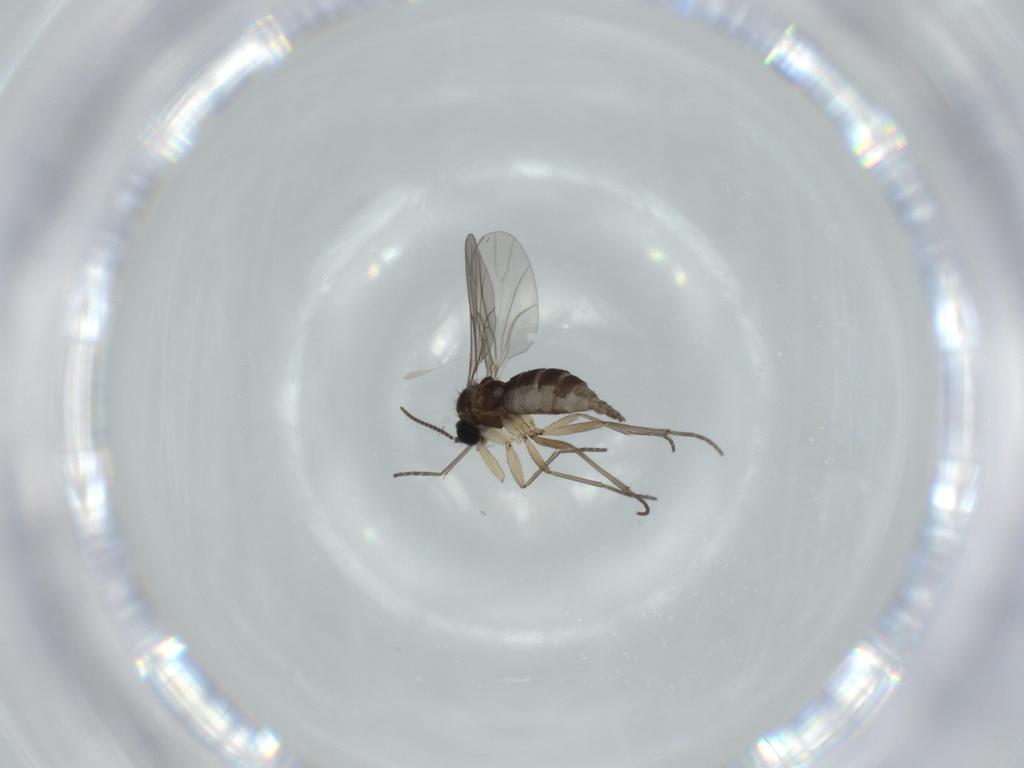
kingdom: Animalia
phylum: Arthropoda
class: Insecta
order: Diptera
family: Sciaridae
